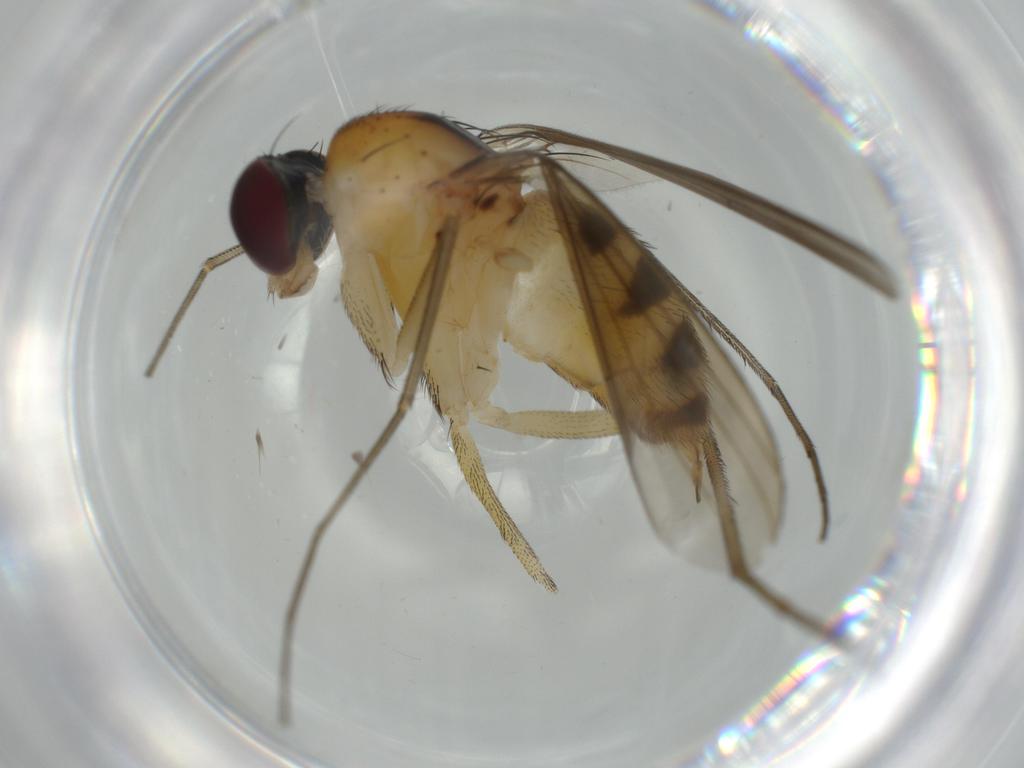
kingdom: Animalia
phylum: Arthropoda
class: Insecta
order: Diptera
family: Dolichopodidae
